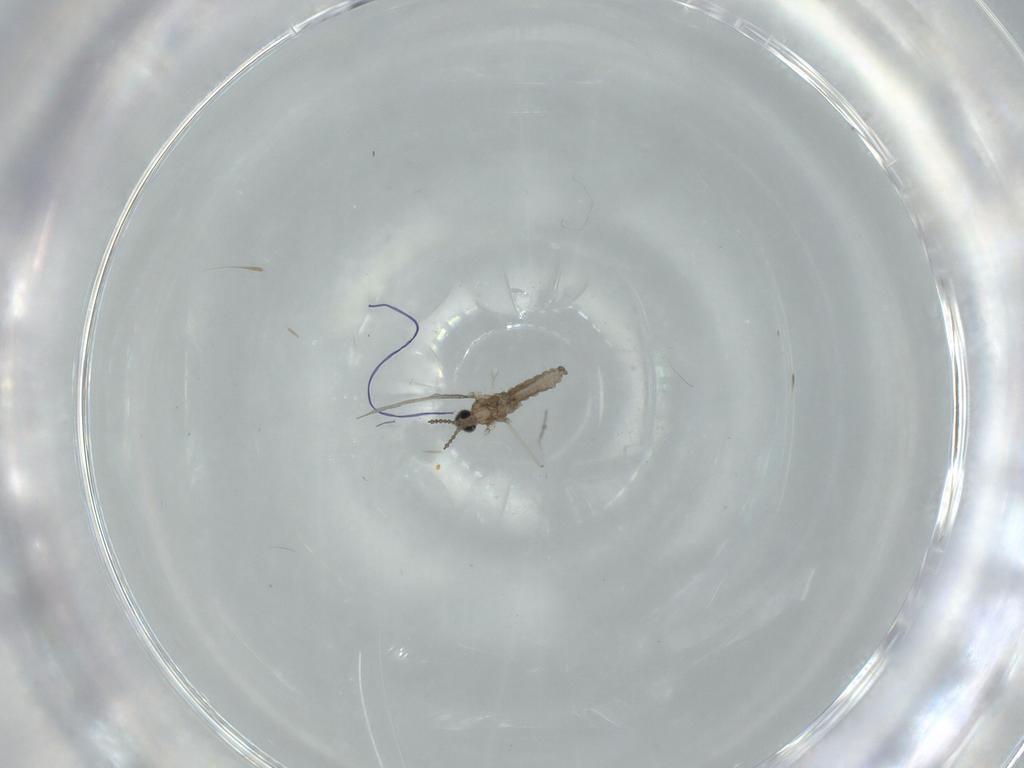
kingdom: Animalia
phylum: Arthropoda
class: Insecta
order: Diptera
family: Cecidomyiidae
